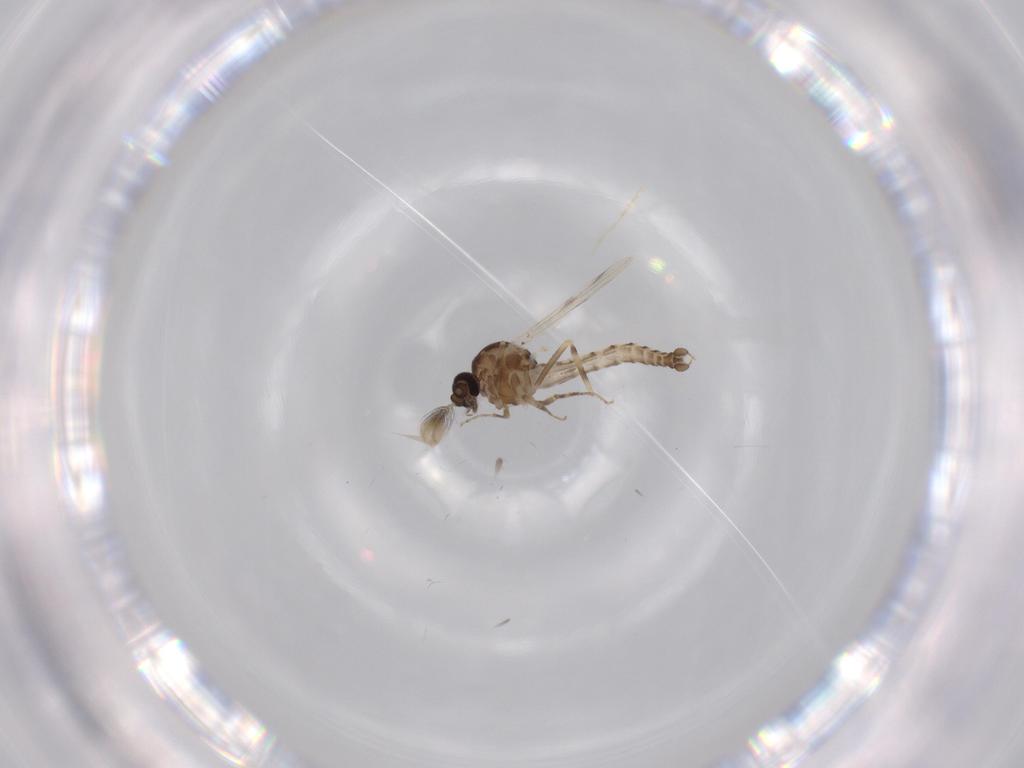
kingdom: Animalia
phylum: Arthropoda
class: Insecta
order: Diptera
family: Ceratopogonidae
